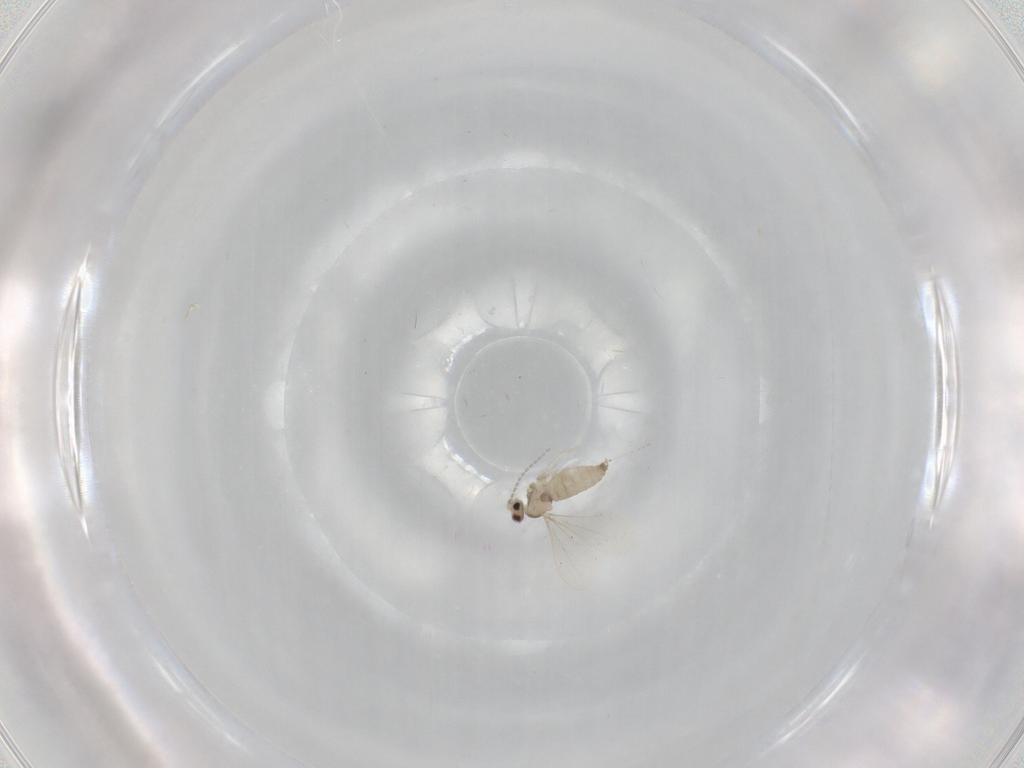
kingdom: Animalia
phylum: Arthropoda
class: Insecta
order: Diptera
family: Cecidomyiidae
